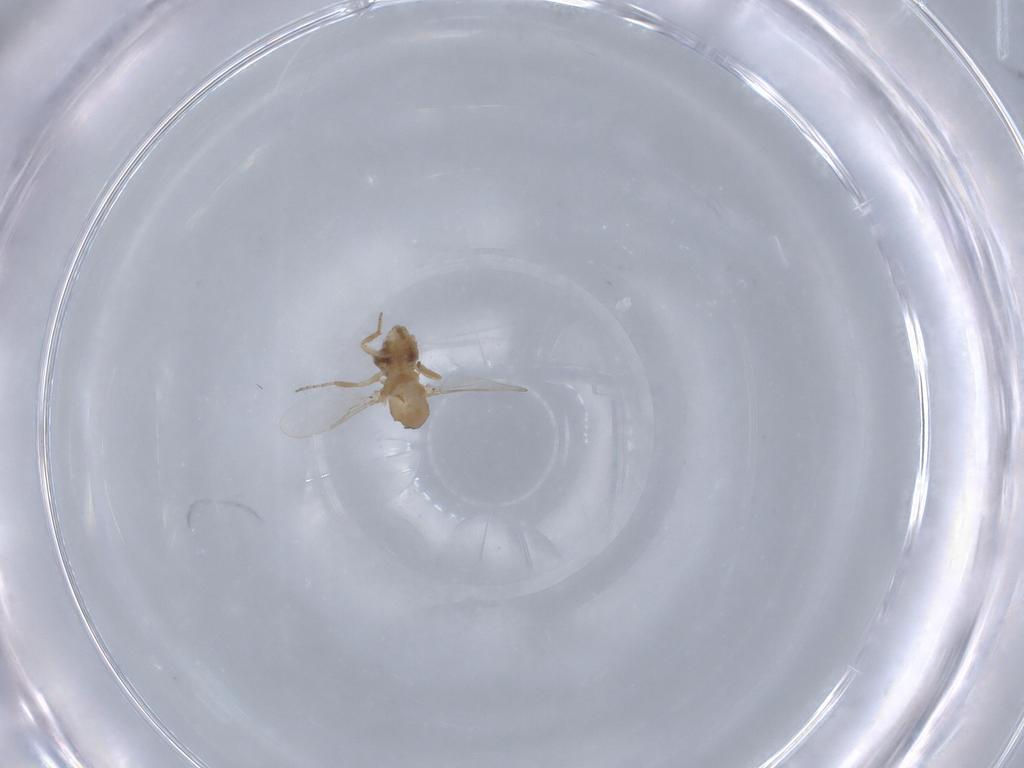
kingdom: Animalia
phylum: Arthropoda
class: Insecta
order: Diptera
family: Ceratopogonidae
